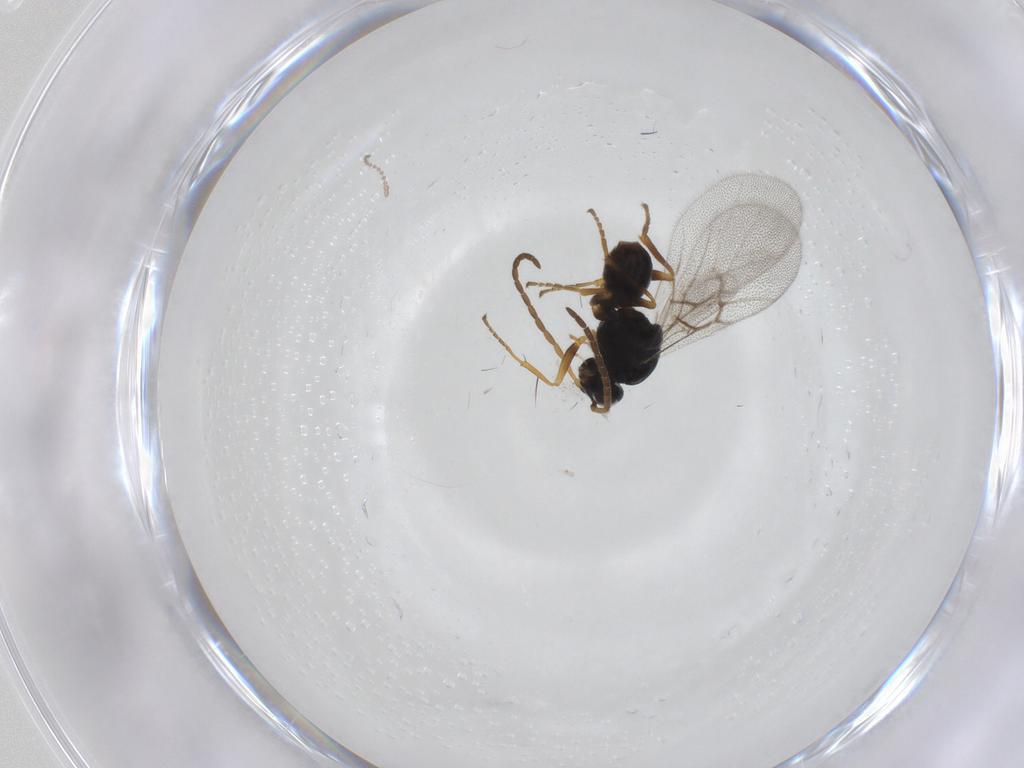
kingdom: Animalia
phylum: Arthropoda
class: Insecta
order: Hymenoptera
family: Cynipidae
